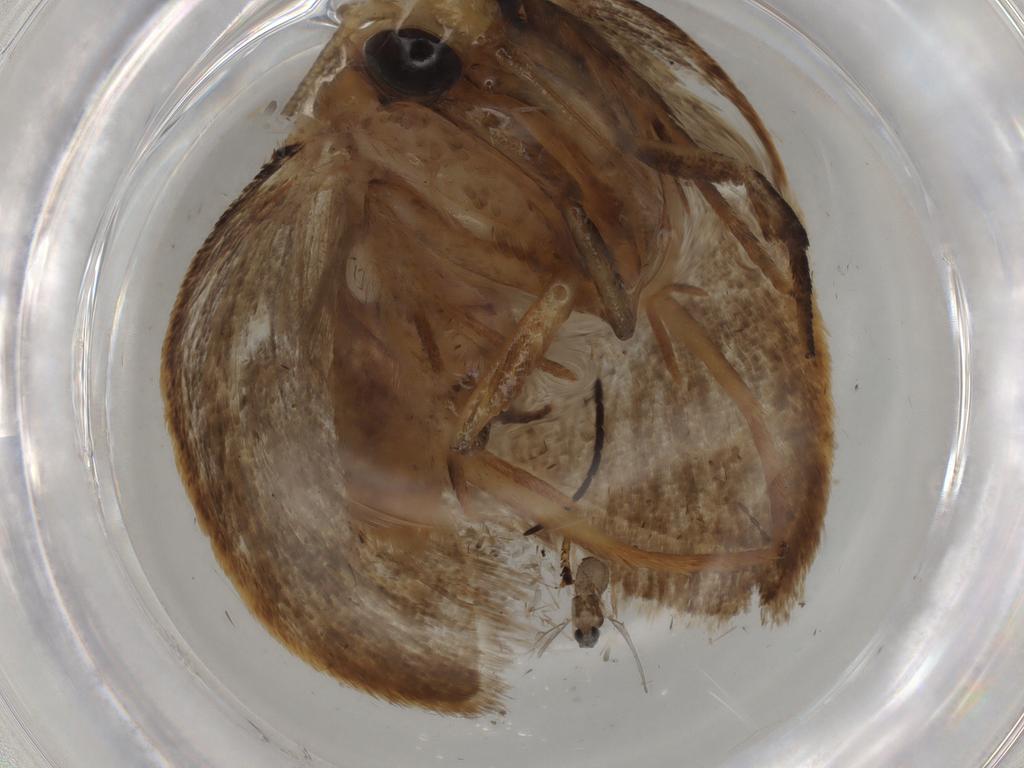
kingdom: Animalia
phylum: Arthropoda
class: Insecta
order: Lepidoptera
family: Oecophoridae
